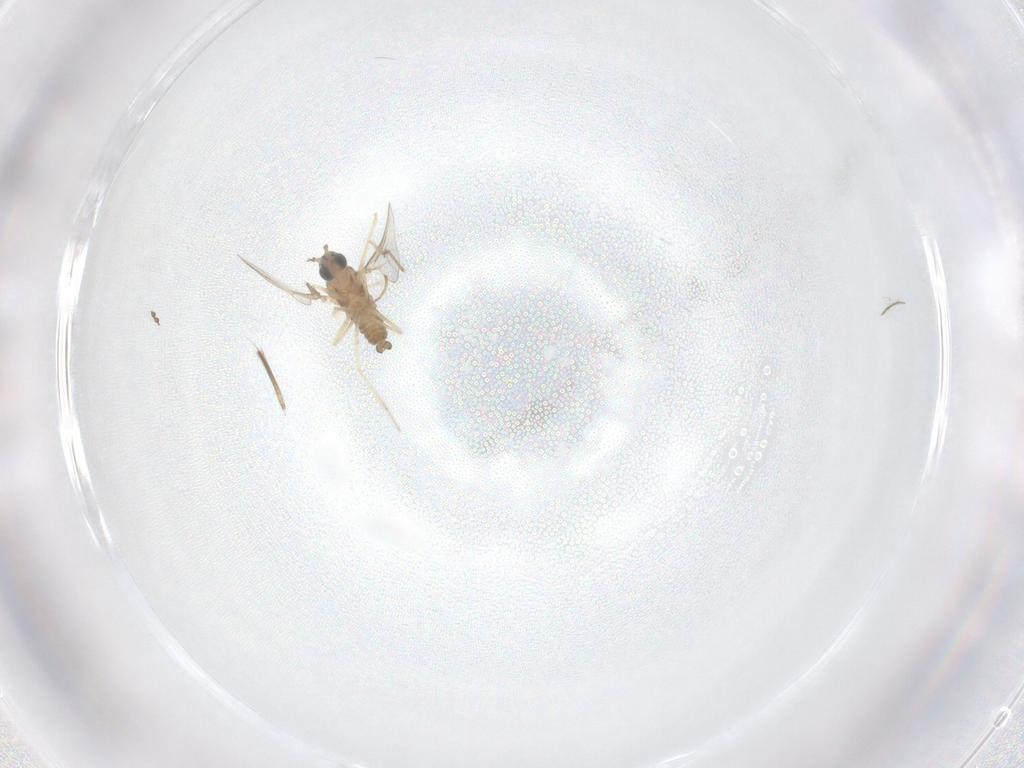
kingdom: Animalia
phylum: Arthropoda
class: Insecta
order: Diptera
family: Cecidomyiidae
